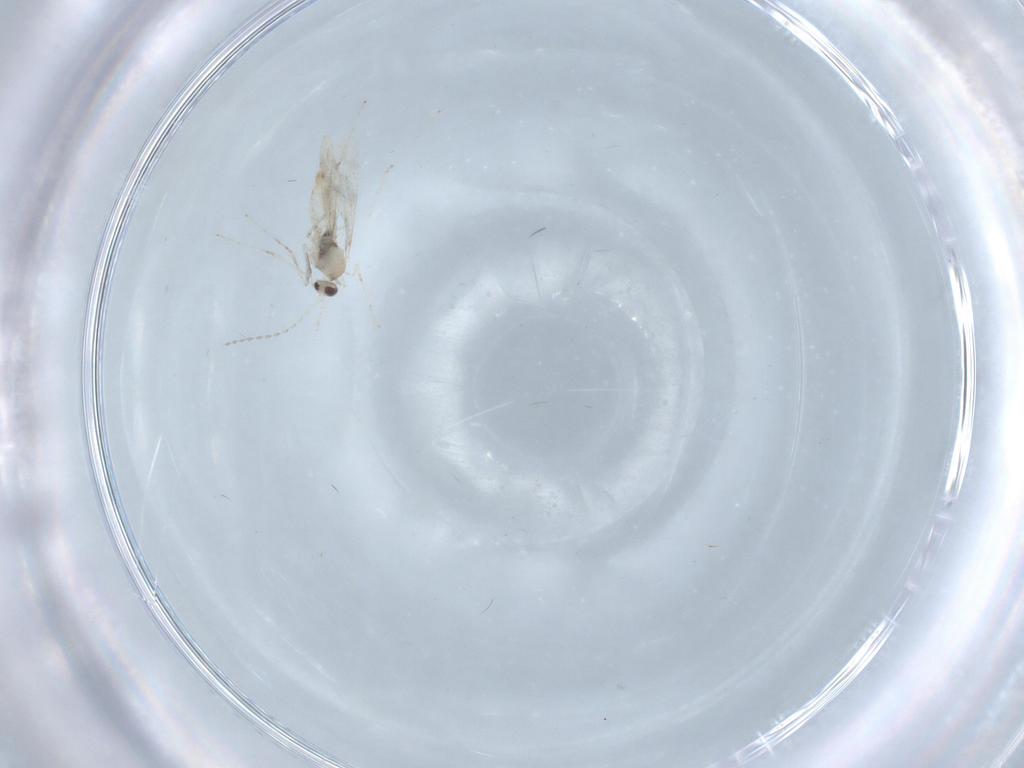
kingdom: Animalia
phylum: Arthropoda
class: Insecta
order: Diptera
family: Cecidomyiidae
